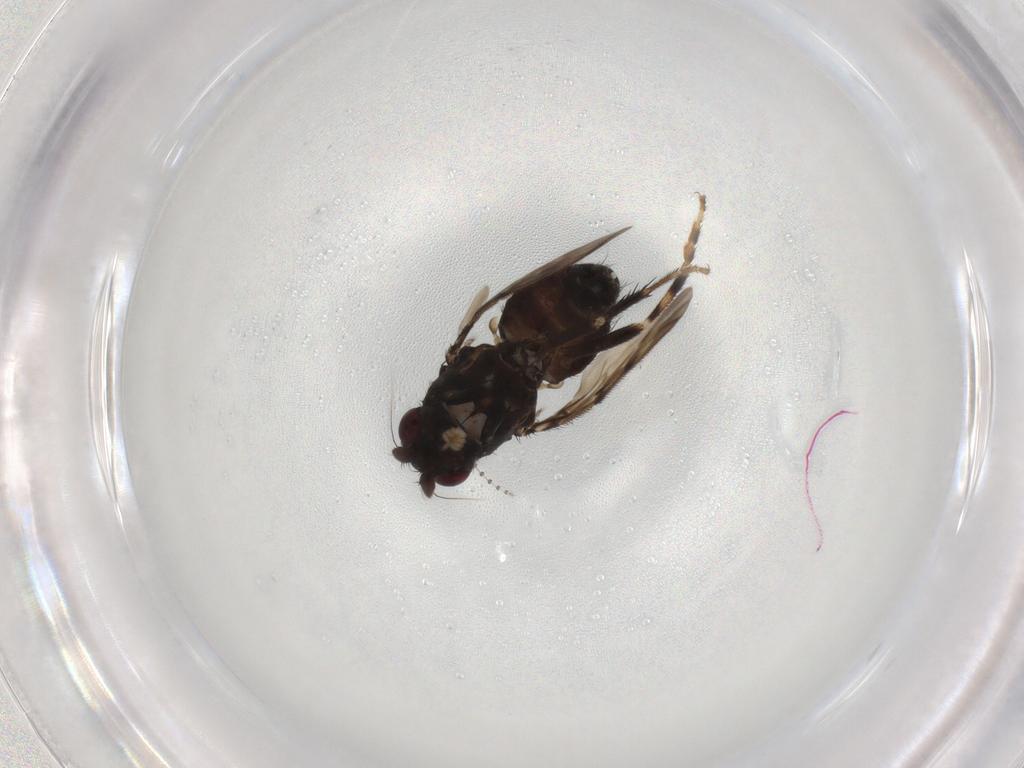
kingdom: Animalia
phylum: Arthropoda
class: Insecta
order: Diptera
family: Sphaeroceridae
